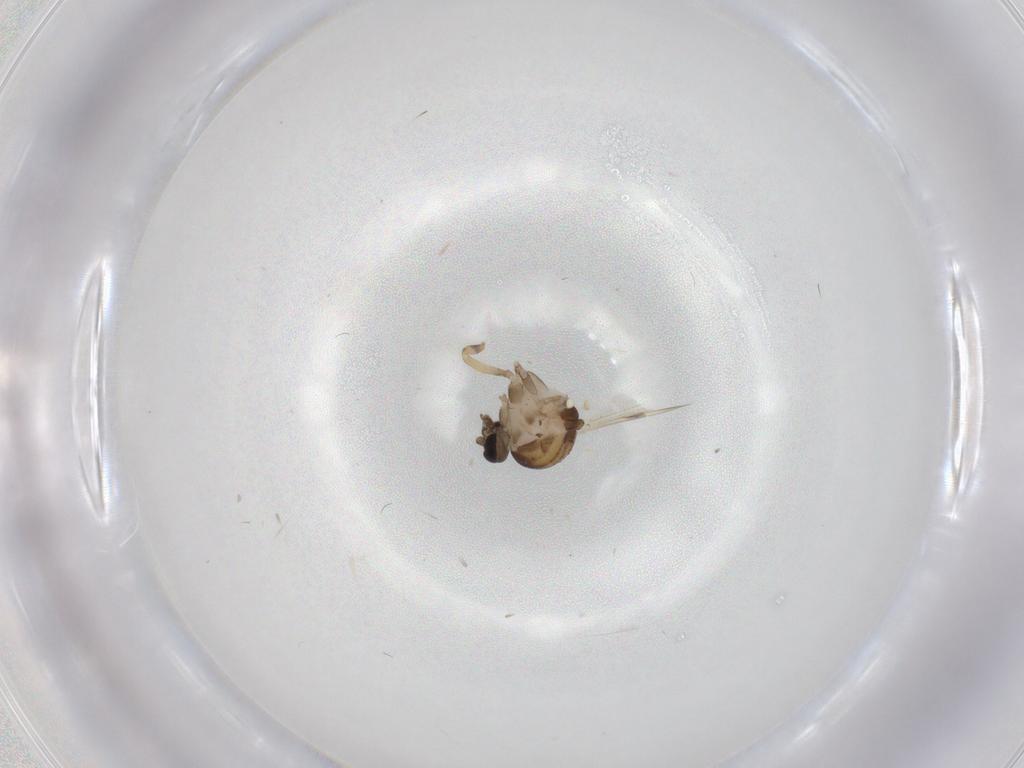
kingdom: Animalia
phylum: Arthropoda
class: Insecta
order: Diptera
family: Ceratopogonidae
